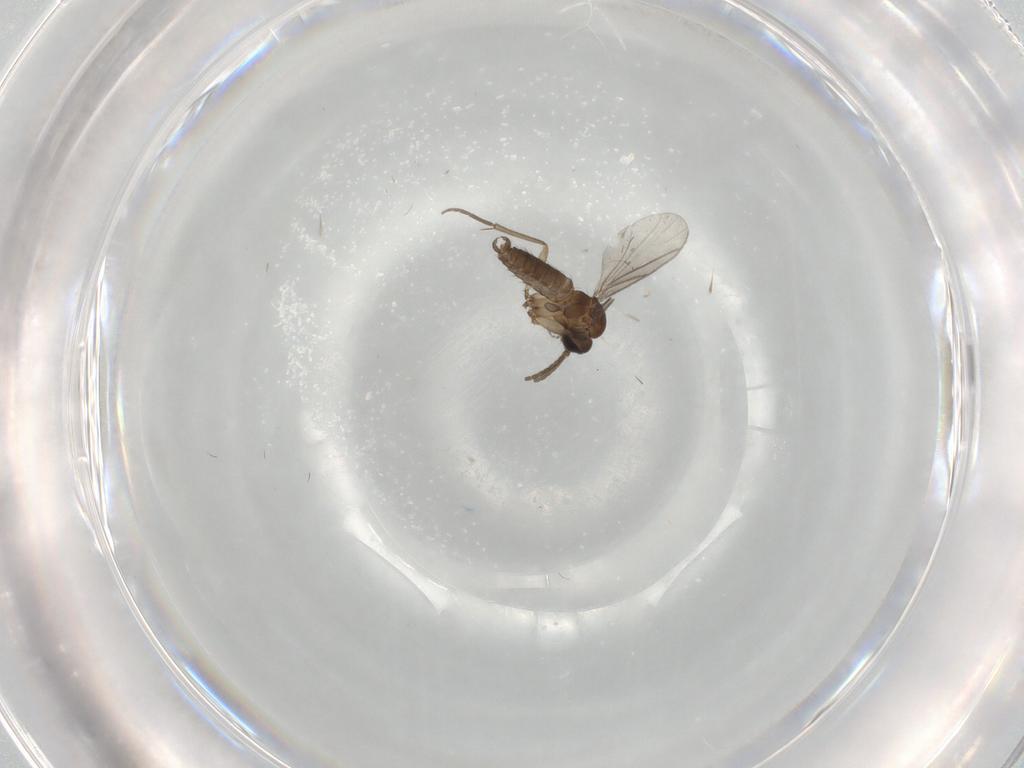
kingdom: Animalia
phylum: Arthropoda
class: Insecta
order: Diptera
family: Sciaridae
